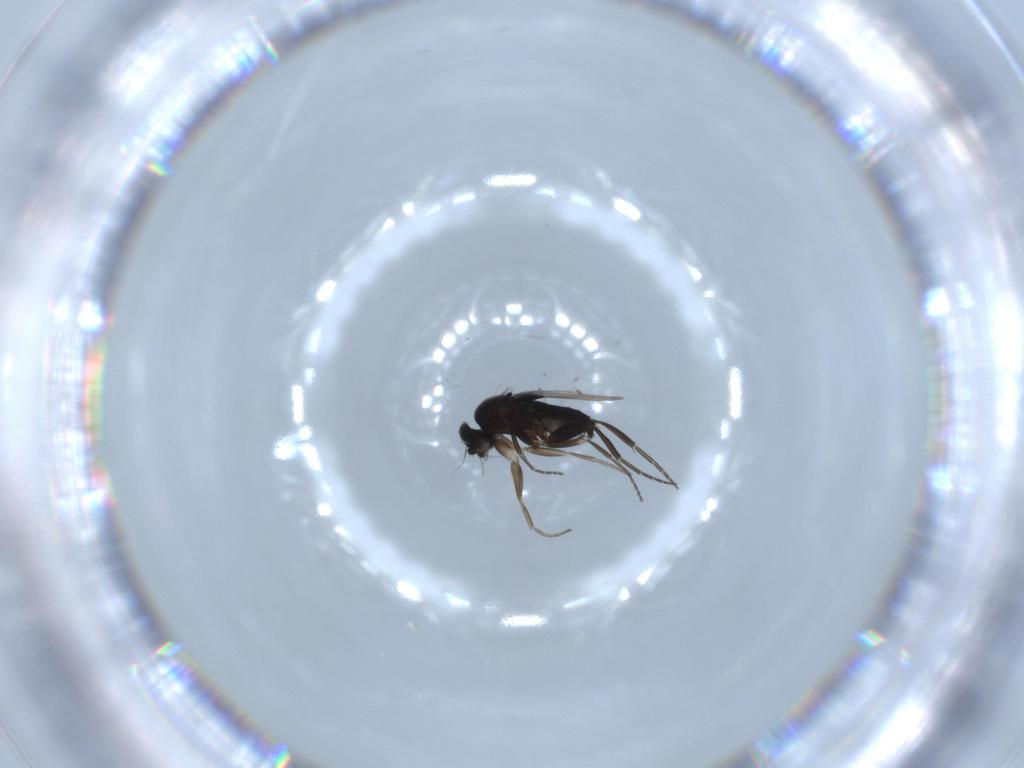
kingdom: Animalia
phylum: Arthropoda
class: Insecta
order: Diptera
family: Phoridae
